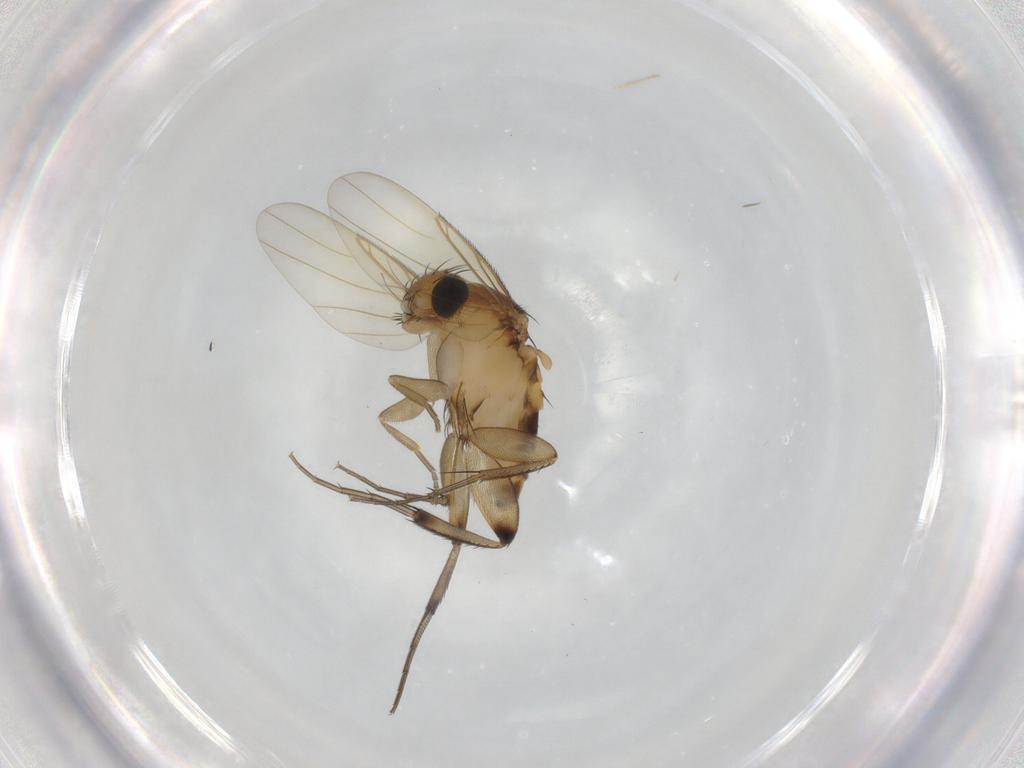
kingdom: Animalia
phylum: Arthropoda
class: Insecta
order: Diptera
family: Phoridae
